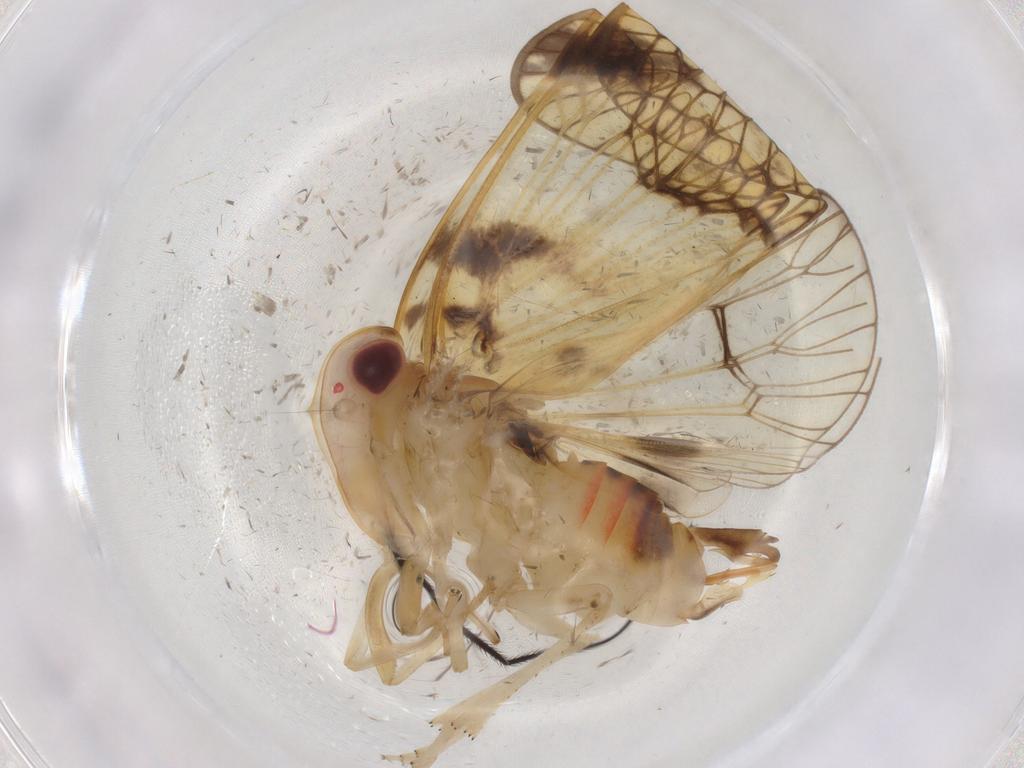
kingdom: Animalia
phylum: Arthropoda
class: Insecta
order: Hemiptera
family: Cixiidae
